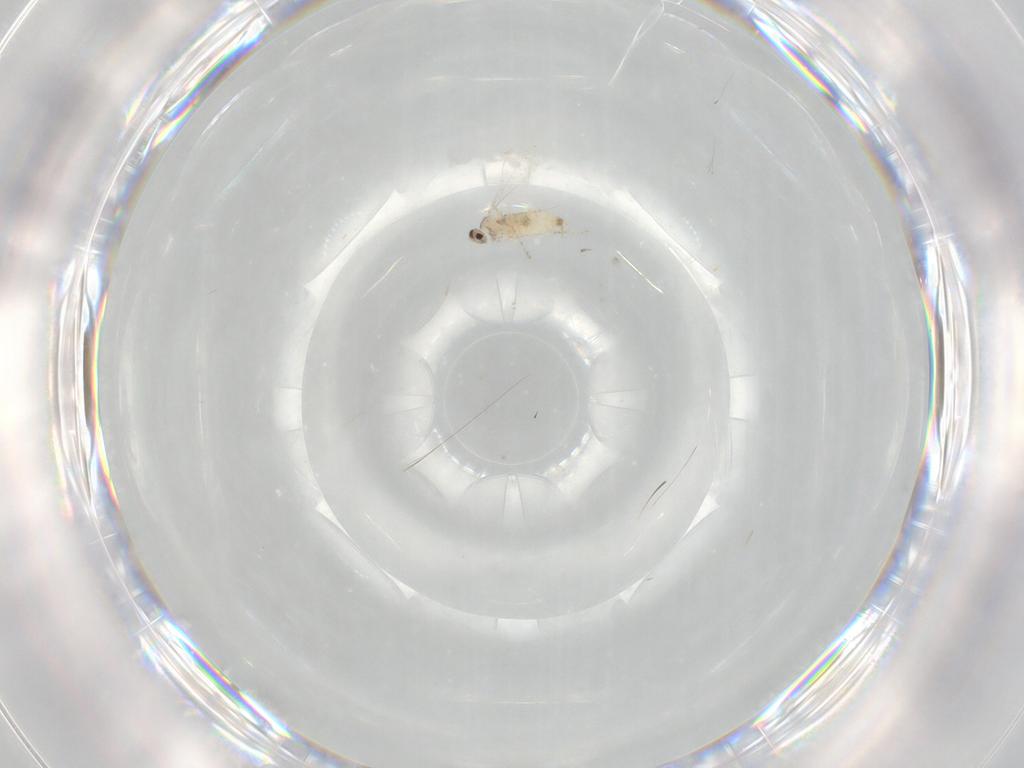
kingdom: Animalia
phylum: Arthropoda
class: Insecta
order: Diptera
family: Cecidomyiidae
